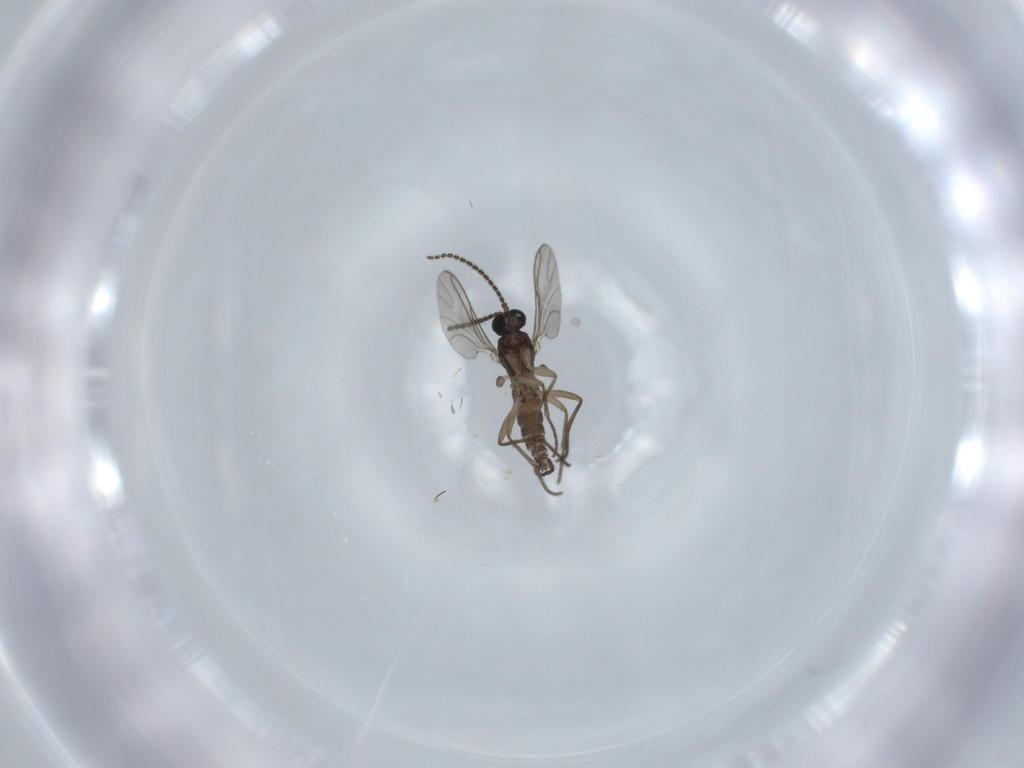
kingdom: Animalia
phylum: Arthropoda
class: Insecta
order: Diptera
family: Sciaridae
